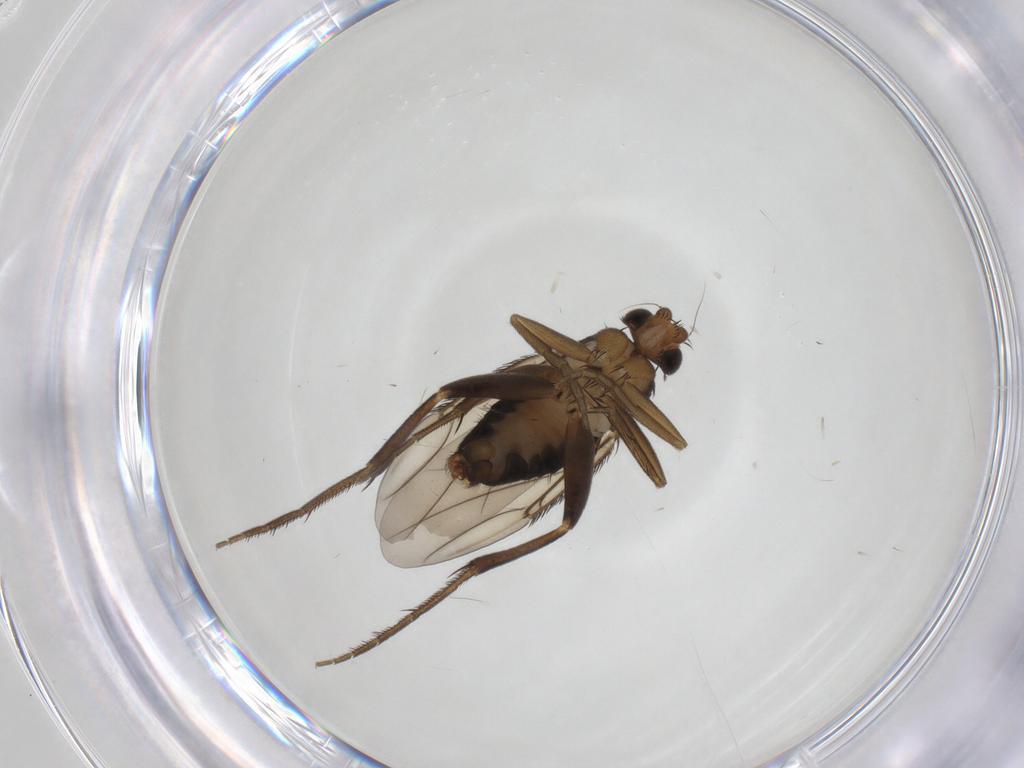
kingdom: Animalia
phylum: Arthropoda
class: Insecta
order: Diptera
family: Phoridae
